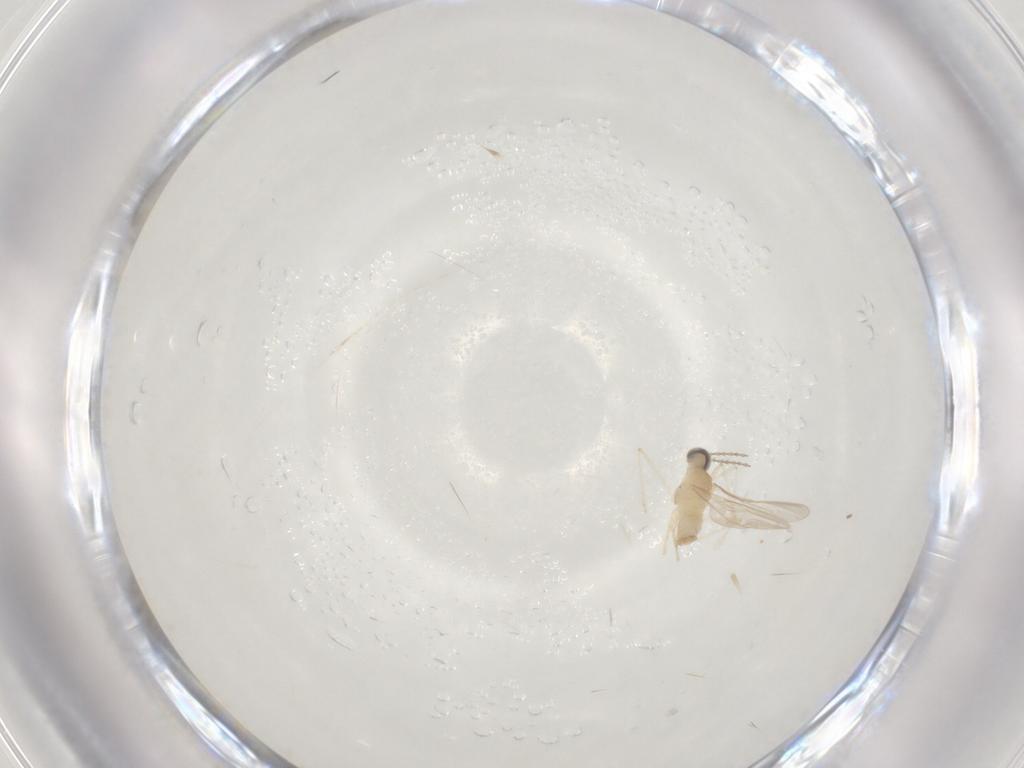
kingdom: Animalia
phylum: Arthropoda
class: Insecta
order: Diptera
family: Cecidomyiidae
